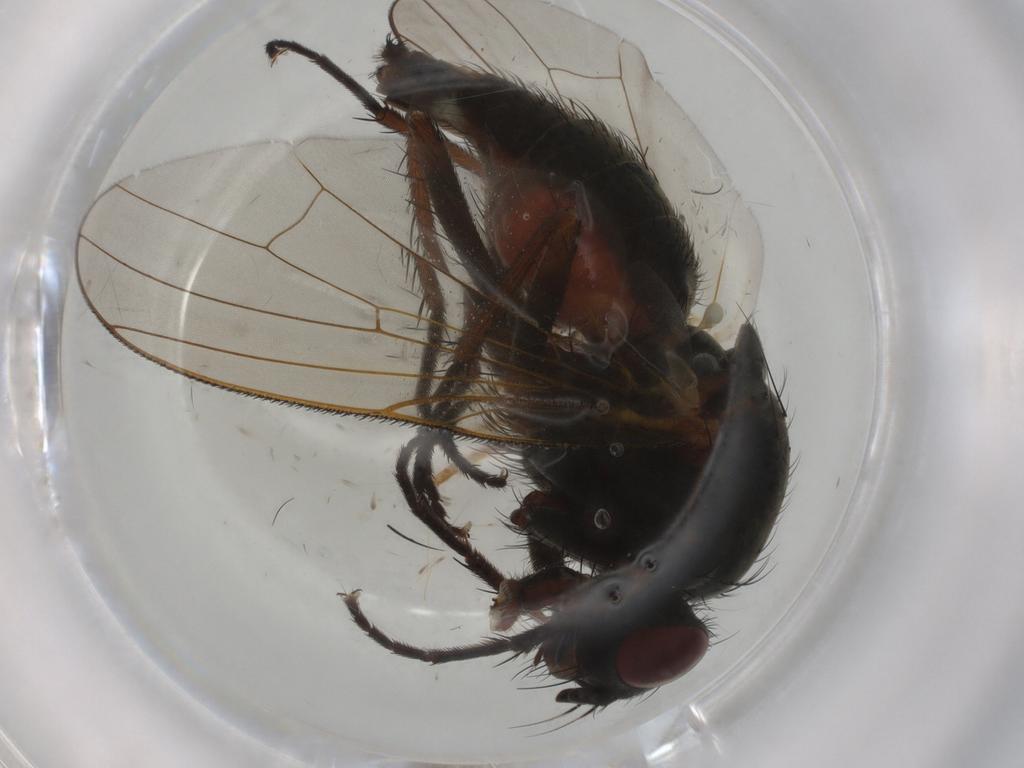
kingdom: Animalia
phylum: Arthropoda
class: Insecta
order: Diptera
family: Anthomyiidae
